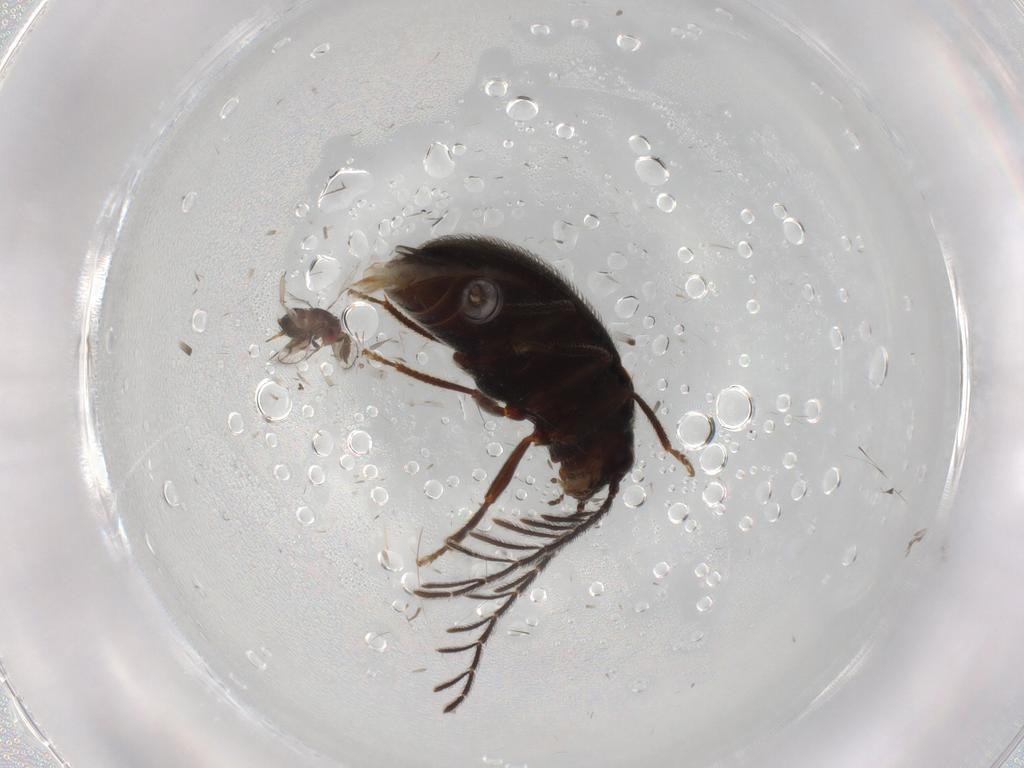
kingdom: Animalia
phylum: Arthropoda
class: Insecta
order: Coleoptera
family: Ptilodactylidae
